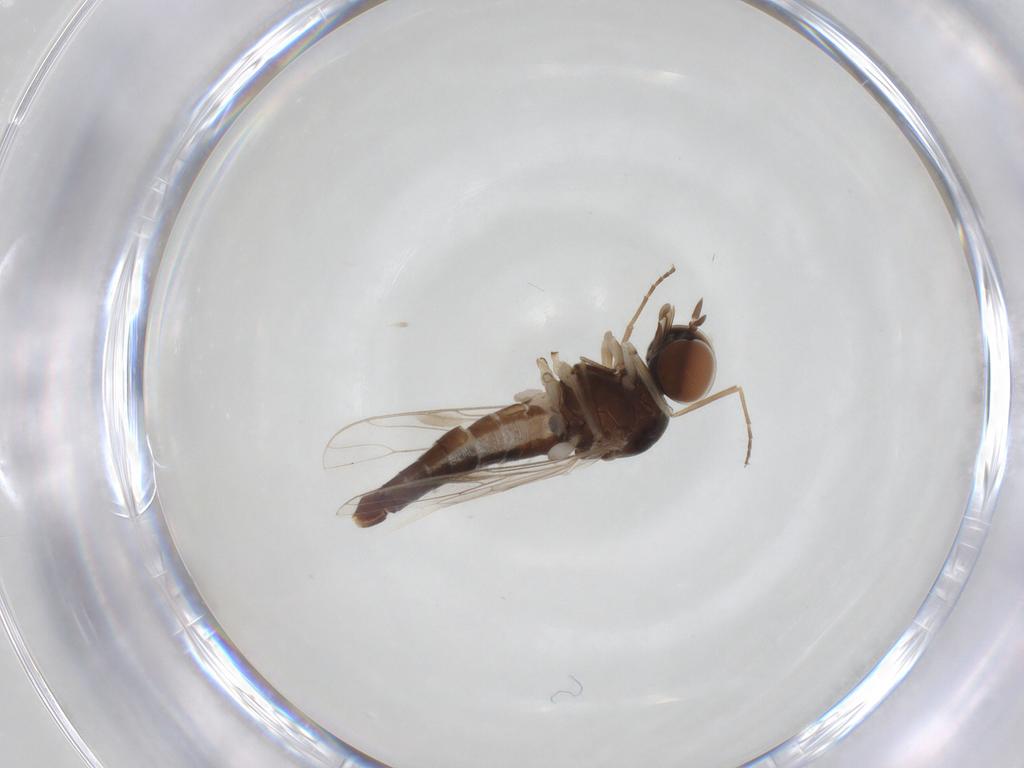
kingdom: Animalia
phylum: Arthropoda
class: Insecta
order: Diptera
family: Scenopinidae
